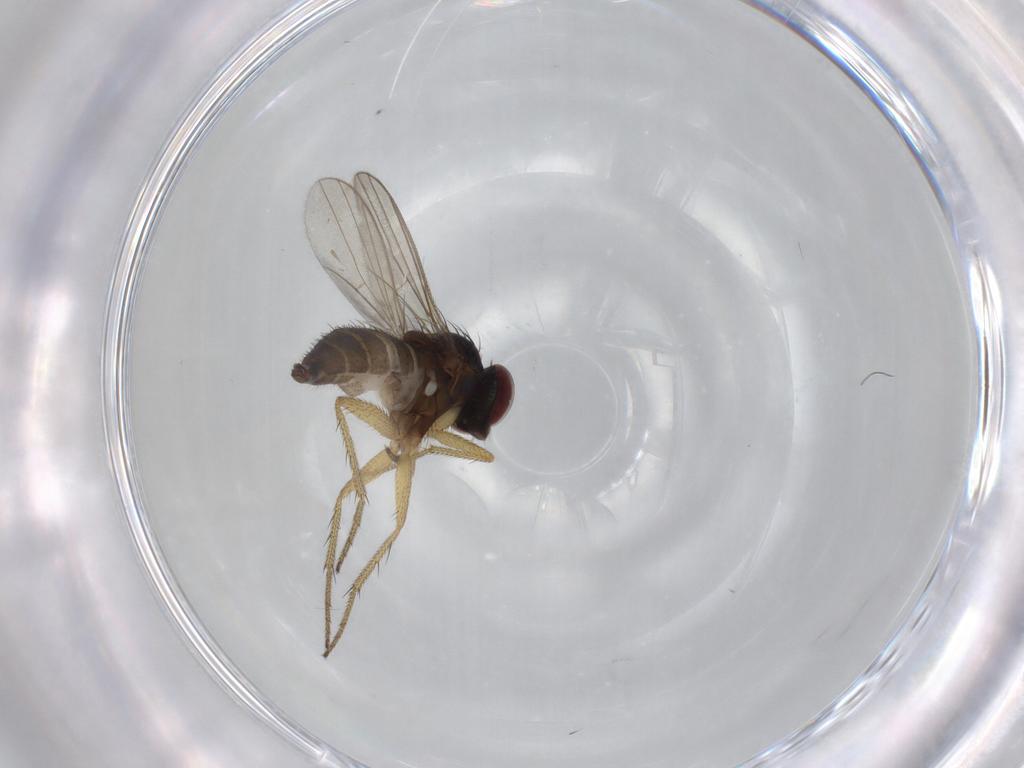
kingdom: Animalia
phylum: Arthropoda
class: Insecta
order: Diptera
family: Dolichopodidae
